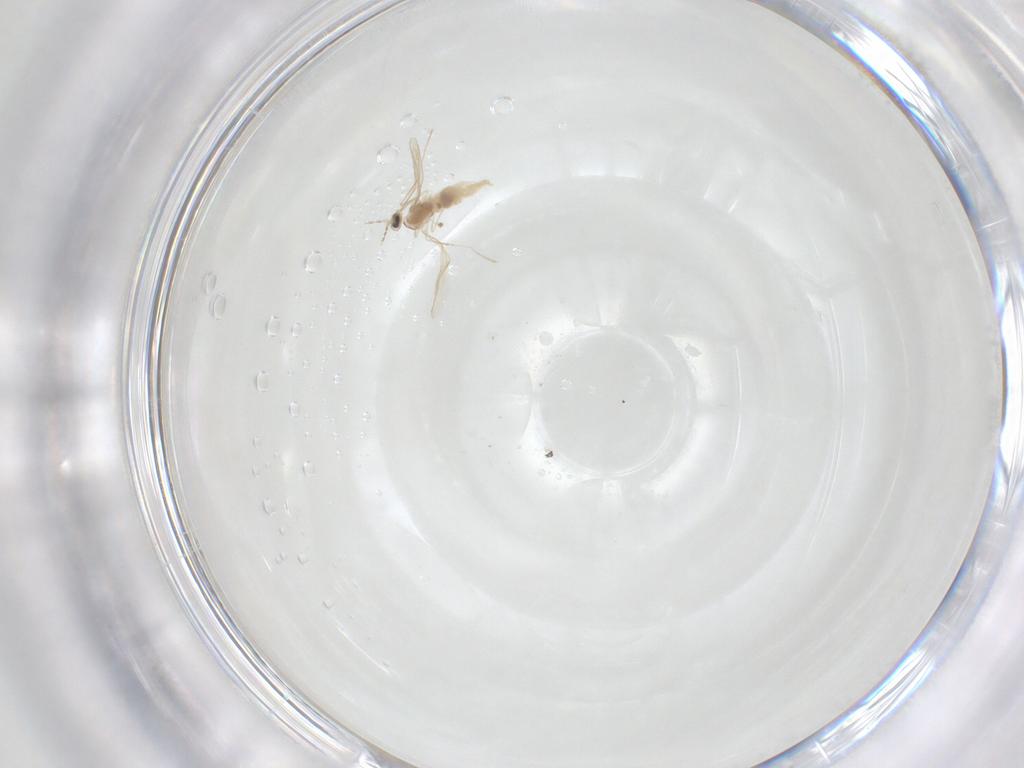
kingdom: Animalia
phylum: Arthropoda
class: Insecta
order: Diptera
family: Cecidomyiidae
